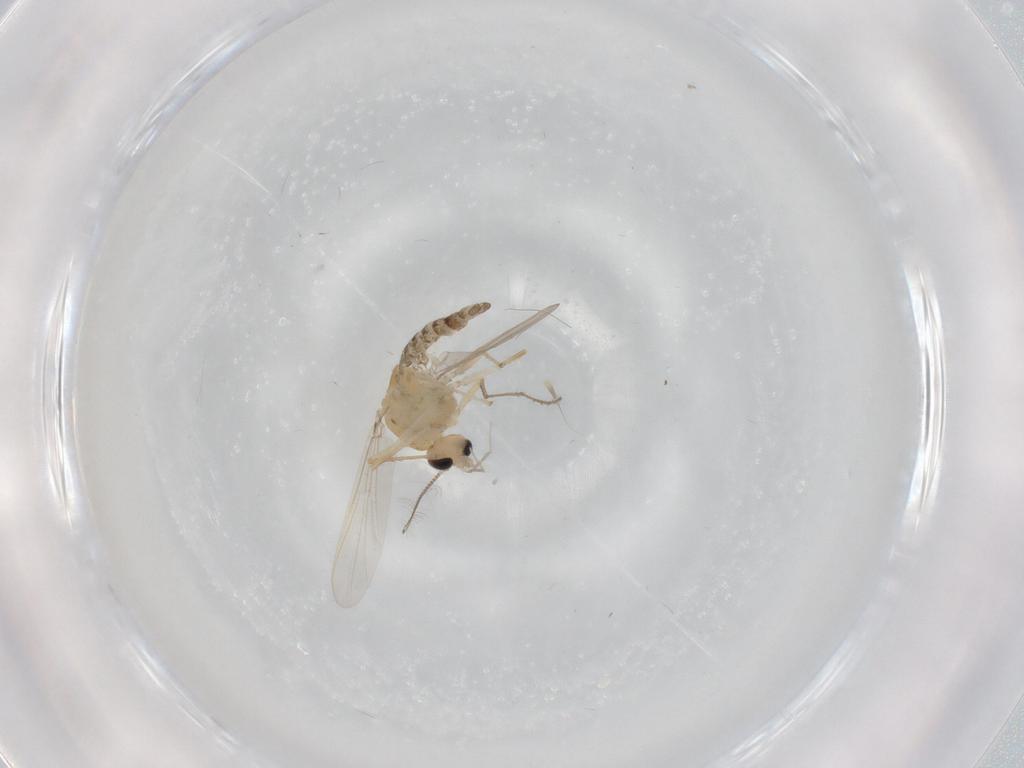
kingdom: Animalia
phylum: Arthropoda
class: Insecta
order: Diptera
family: Chironomidae
